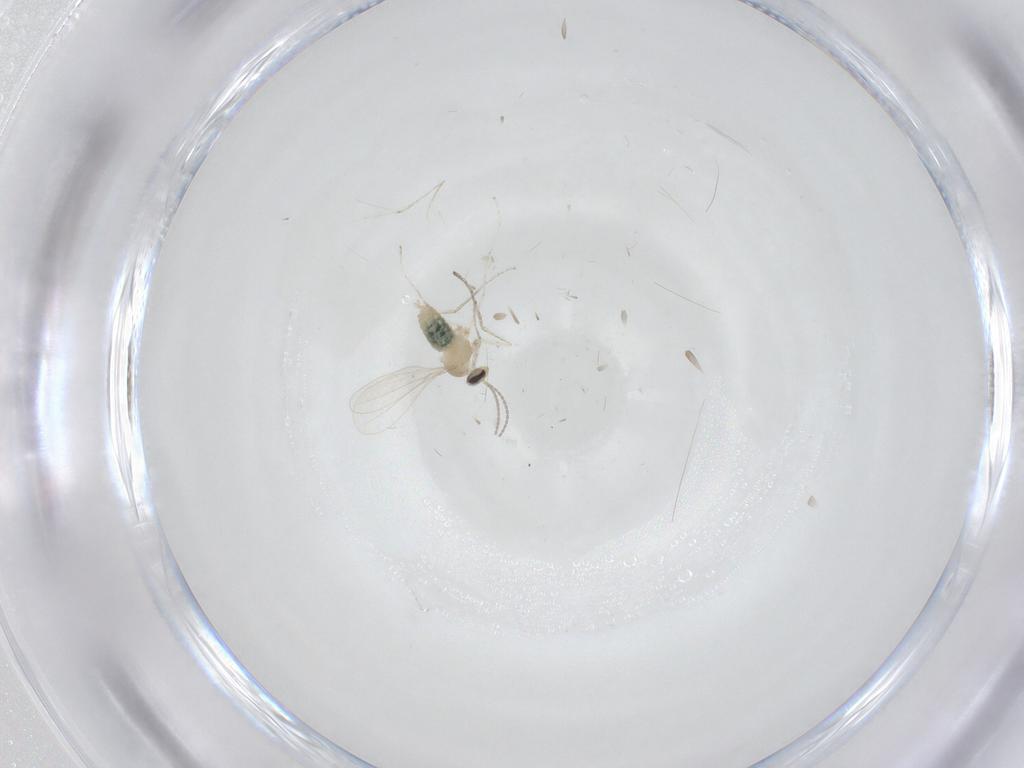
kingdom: Animalia
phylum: Arthropoda
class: Insecta
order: Diptera
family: Cecidomyiidae
